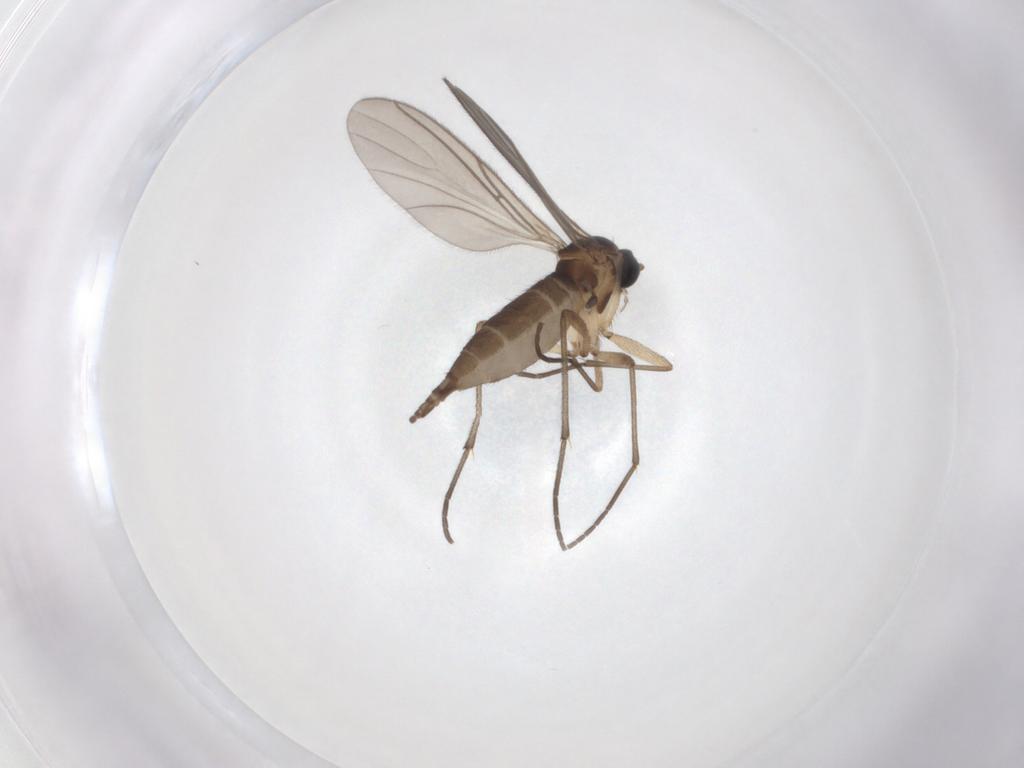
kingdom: Animalia
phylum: Arthropoda
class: Insecta
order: Diptera
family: Sciaridae
